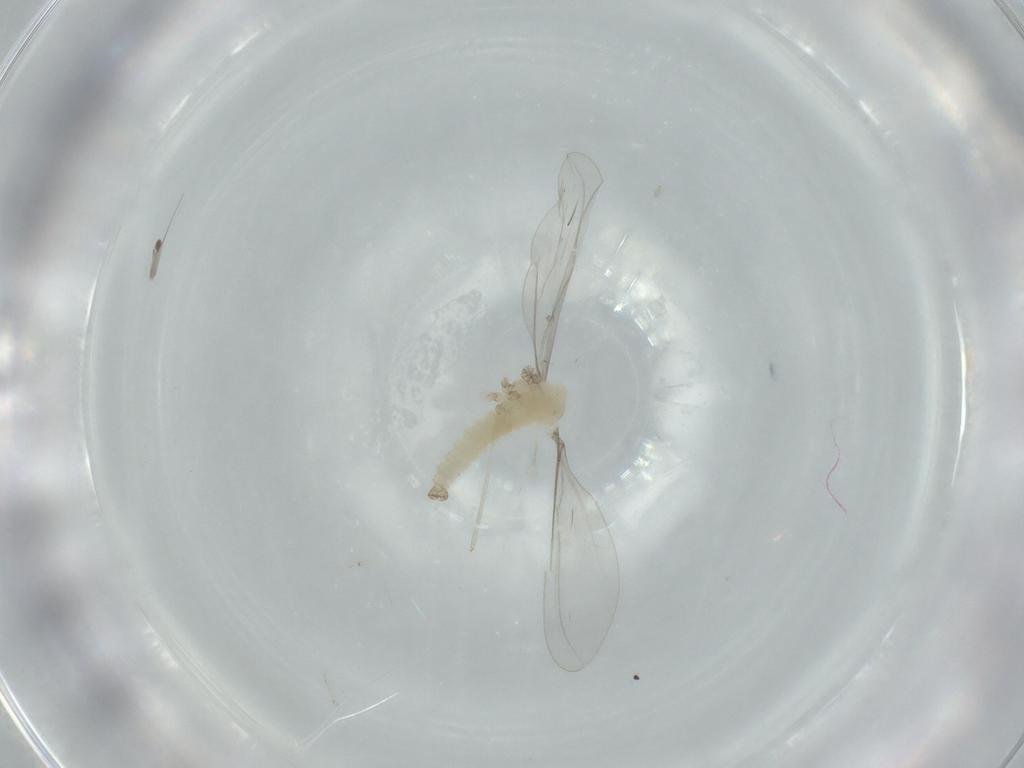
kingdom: Animalia
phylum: Arthropoda
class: Insecta
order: Diptera
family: Cecidomyiidae
